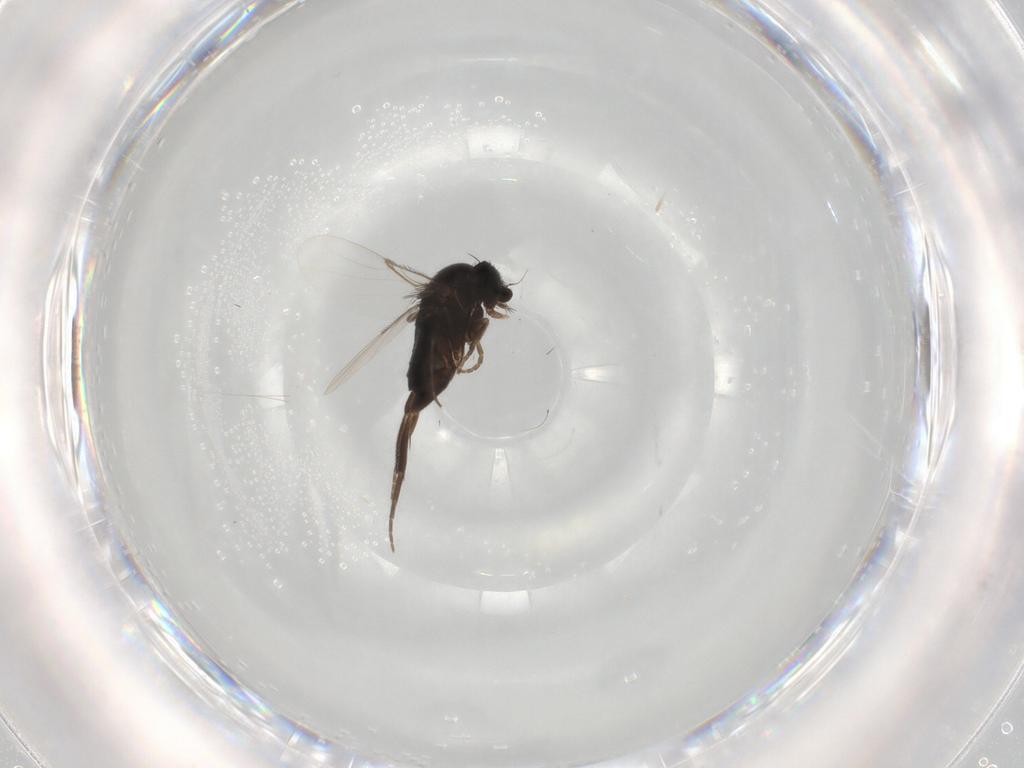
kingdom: Animalia
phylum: Arthropoda
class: Insecta
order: Diptera
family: Phoridae
